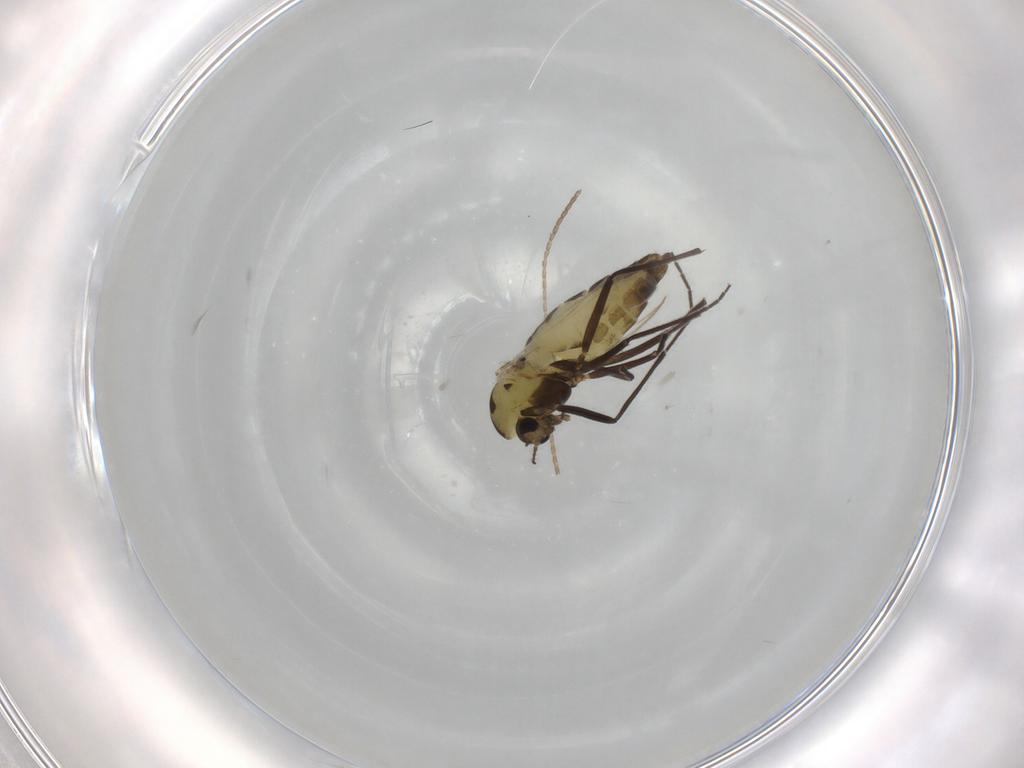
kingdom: Animalia
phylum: Arthropoda
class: Insecta
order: Diptera
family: Chironomidae
